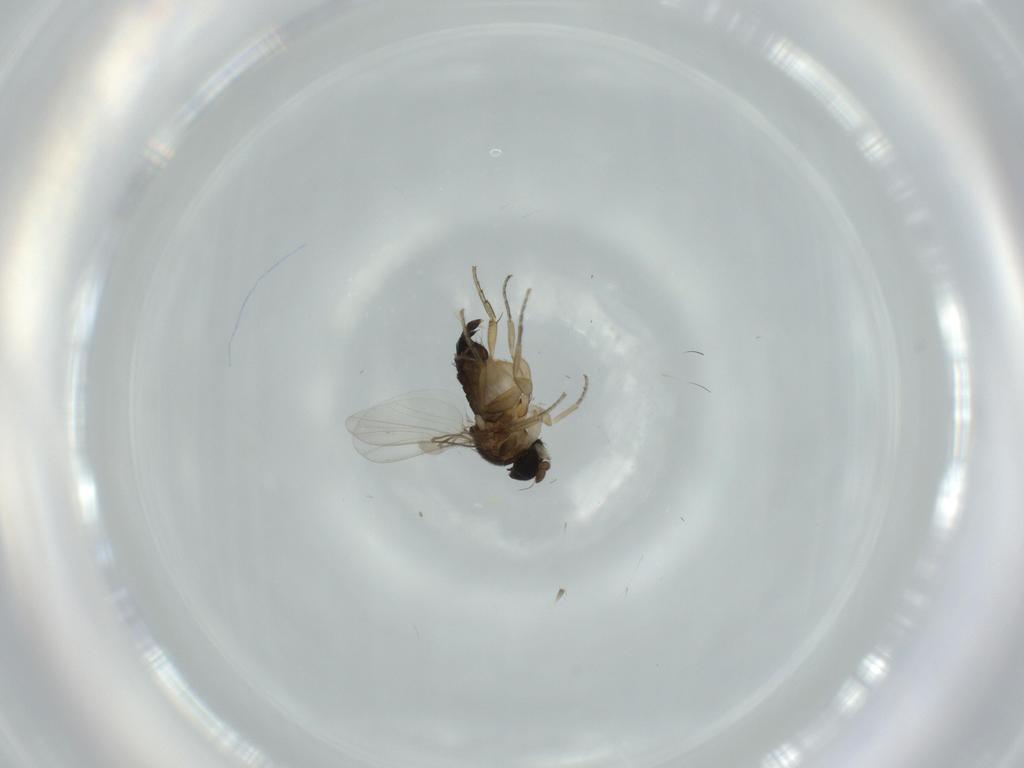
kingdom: Animalia
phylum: Arthropoda
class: Insecta
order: Diptera
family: Phoridae
